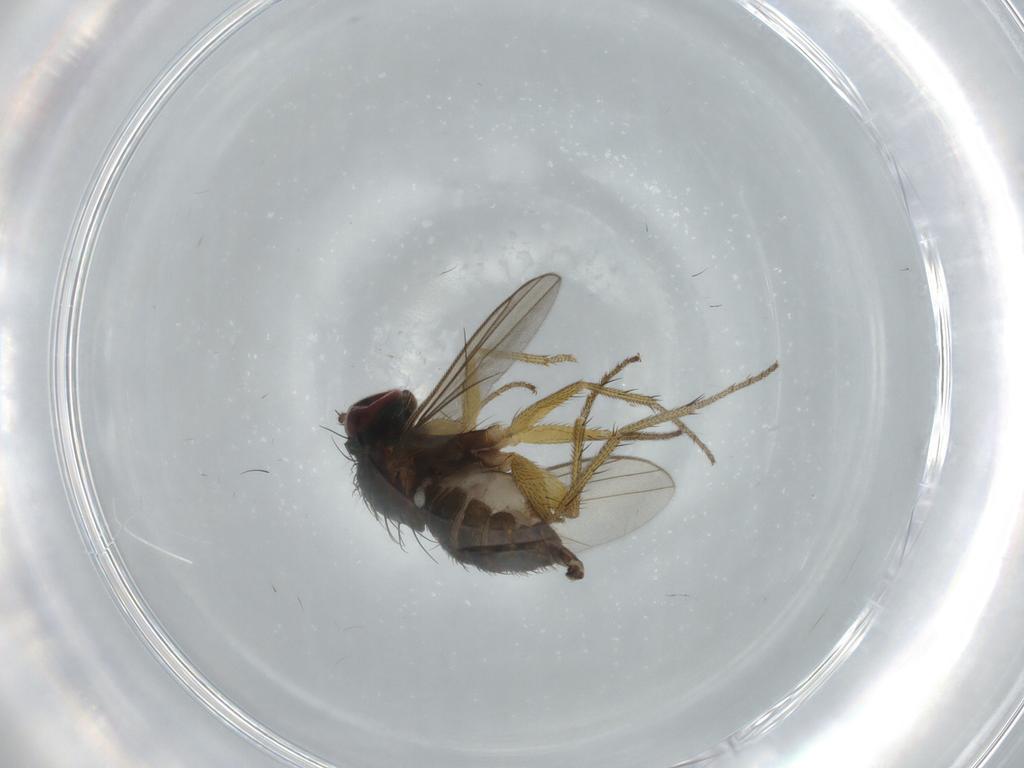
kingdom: Animalia
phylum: Arthropoda
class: Insecta
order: Diptera
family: Dolichopodidae
